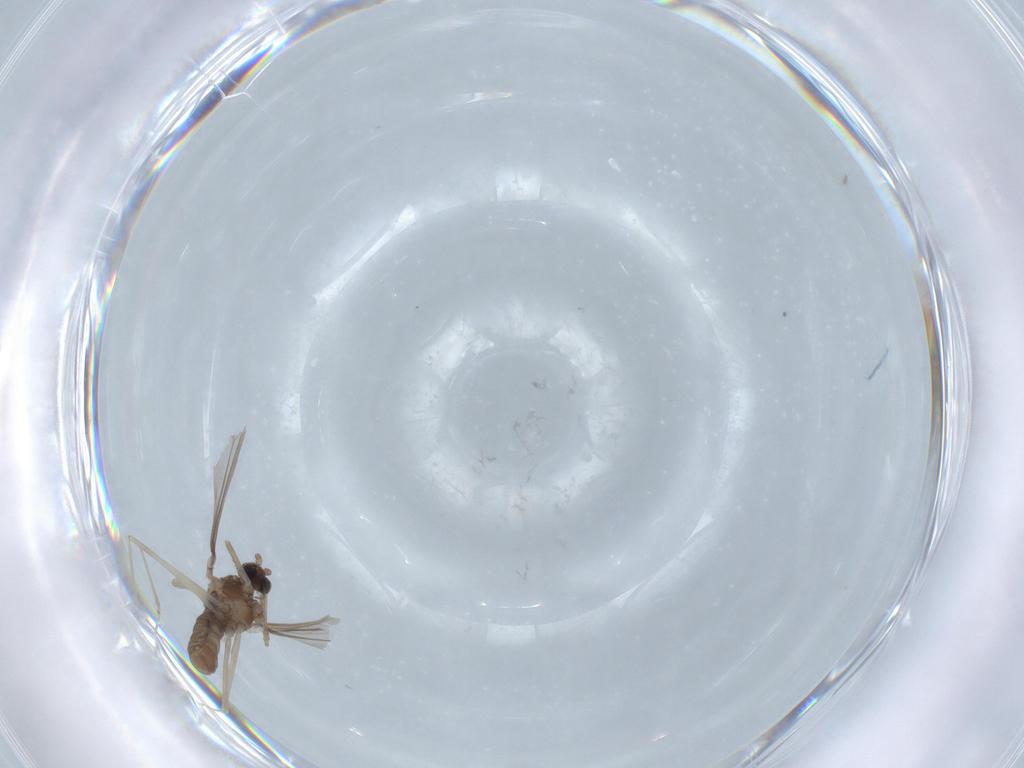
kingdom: Animalia
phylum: Arthropoda
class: Insecta
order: Diptera
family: Cecidomyiidae
